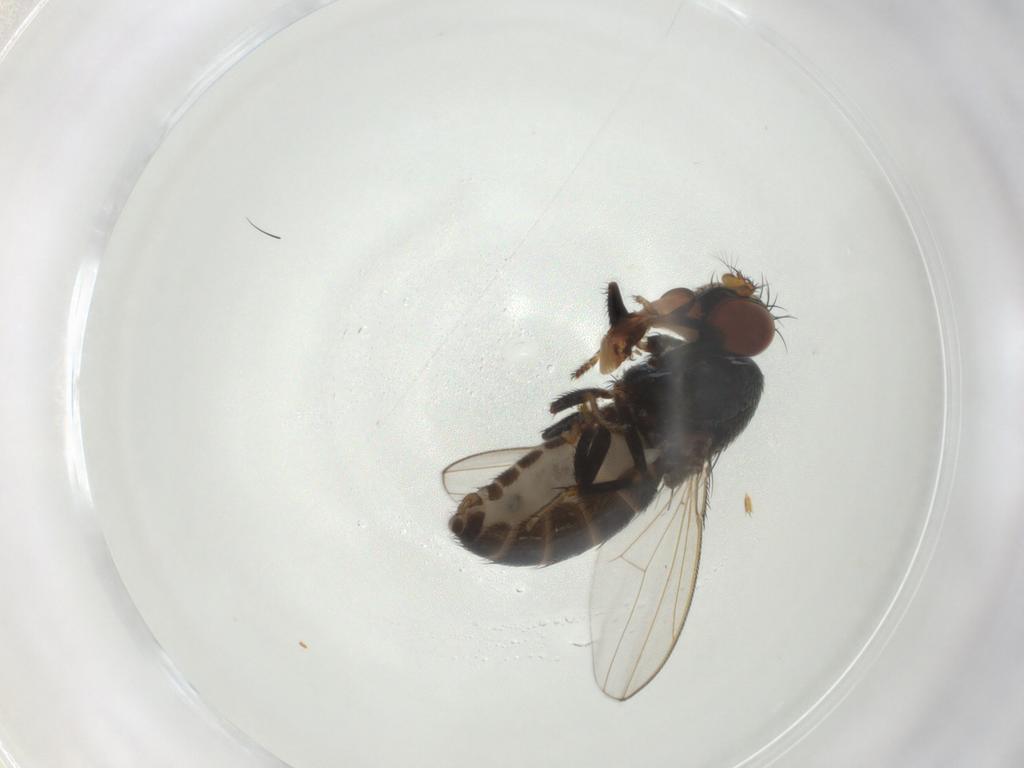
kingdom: Animalia
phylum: Arthropoda
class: Insecta
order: Diptera
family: Ephydridae
